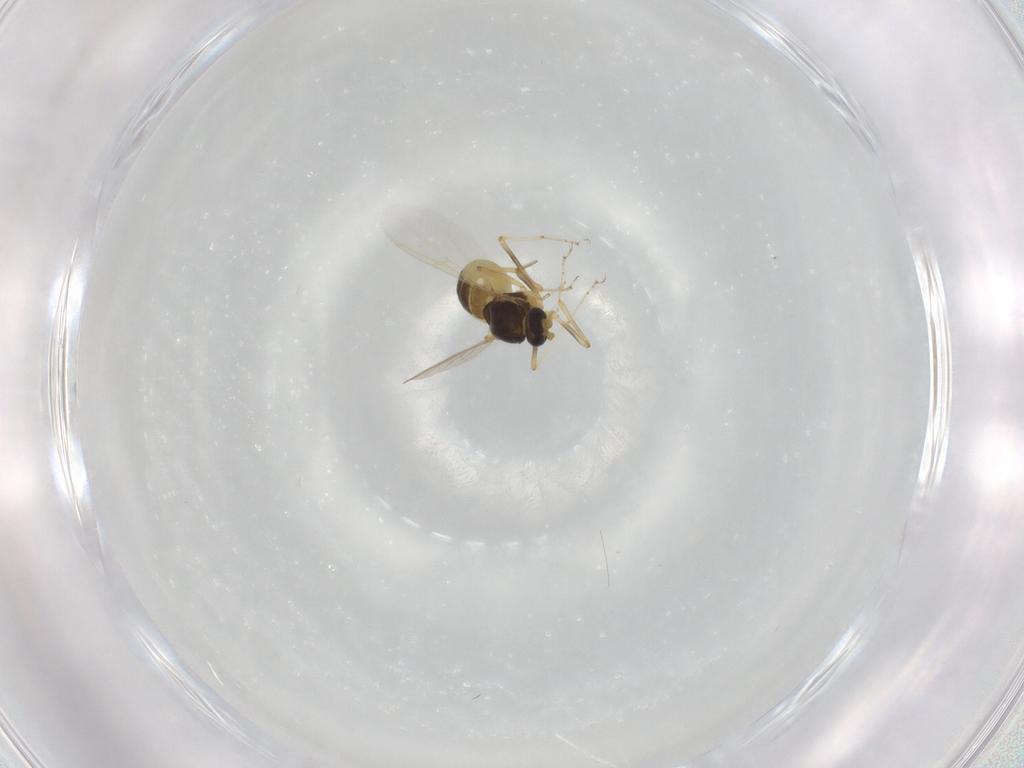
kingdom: Animalia
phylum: Arthropoda
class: Insecta
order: Diptera
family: Ceratopogonidae
